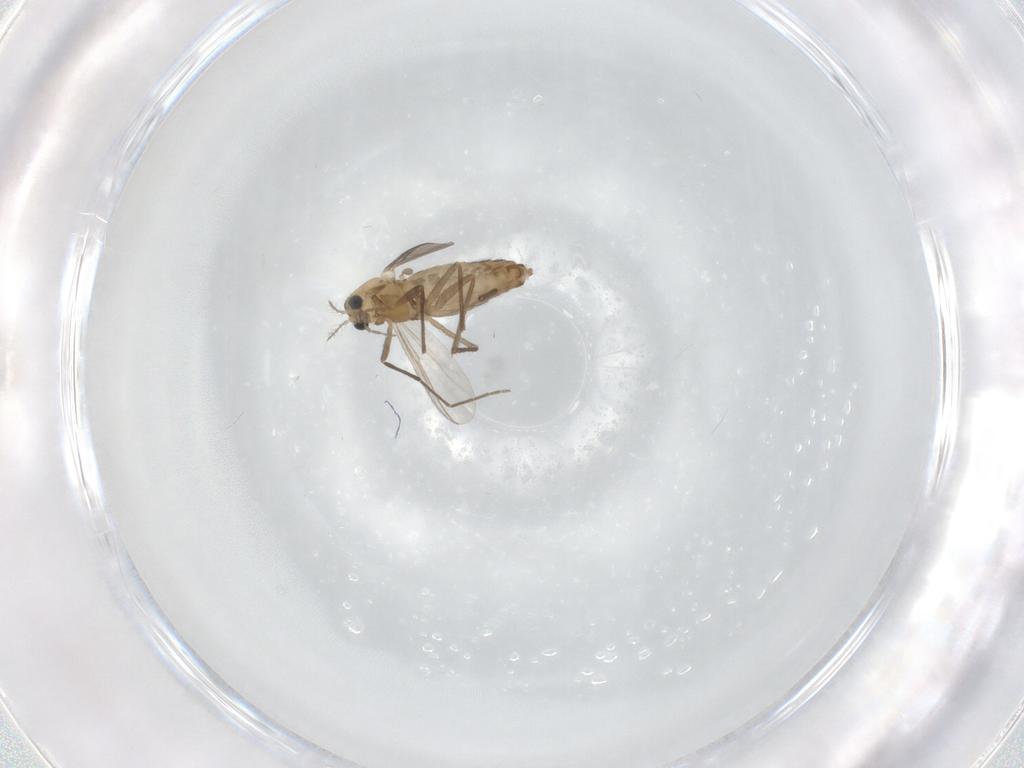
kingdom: Animalia
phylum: Arthropoda
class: Insecta
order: Diptera
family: Chironomidae
